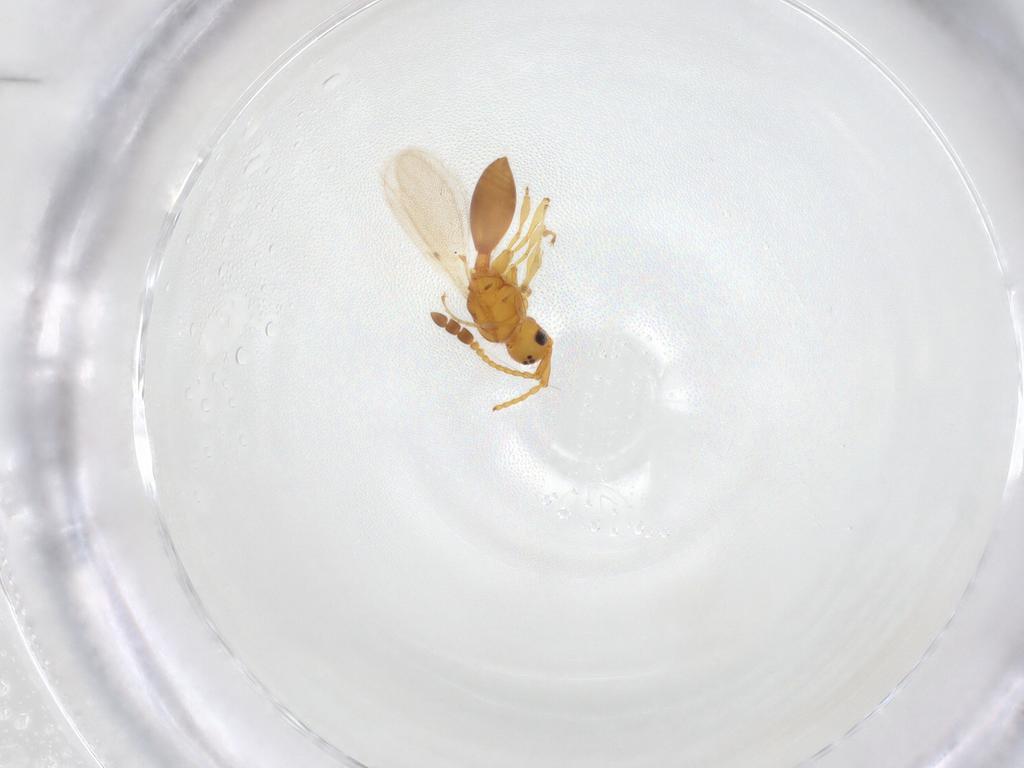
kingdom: Animalia
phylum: Arthropoda
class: Insecta
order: Hymenoptera
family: Diapriidae
